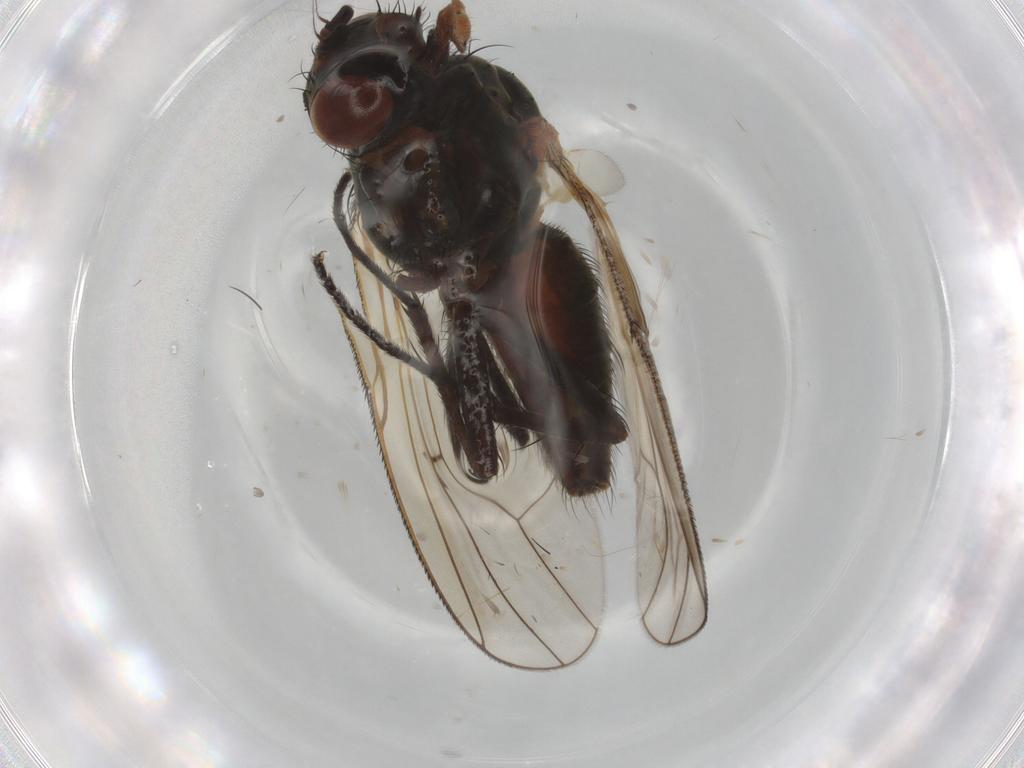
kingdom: Animalia
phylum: Arthropoda
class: Insecta
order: Diptera
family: Anthomyiidae
